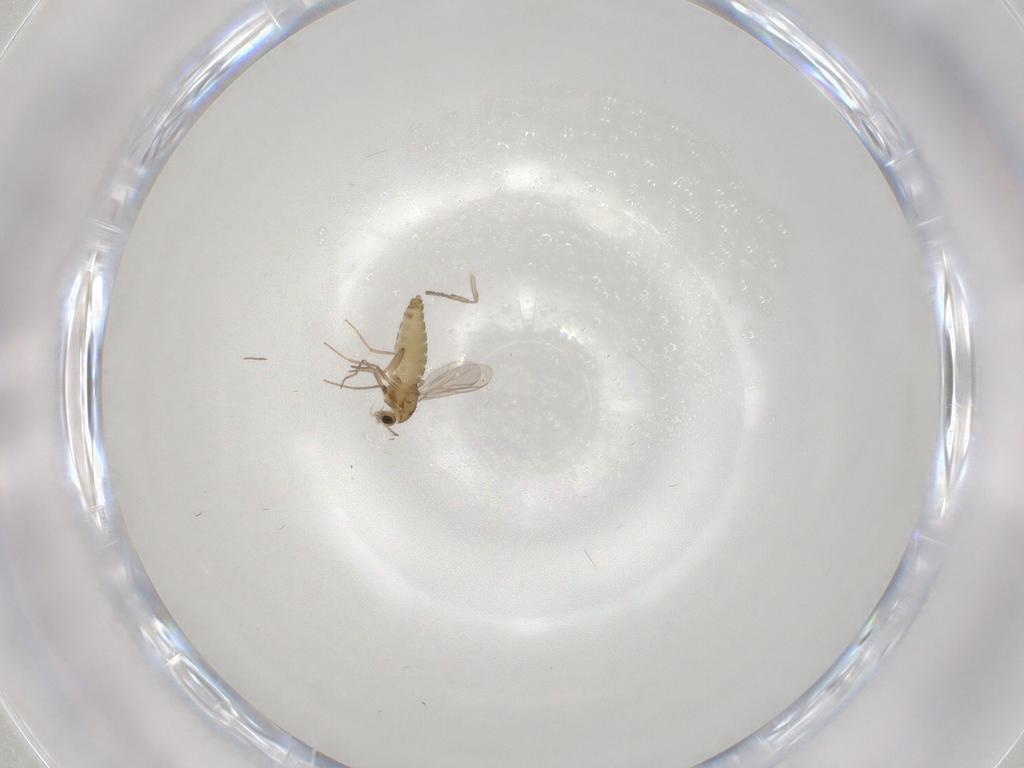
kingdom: Animalia
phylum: Arthropoda
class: Insecta
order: Diptera
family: Chironomidae
